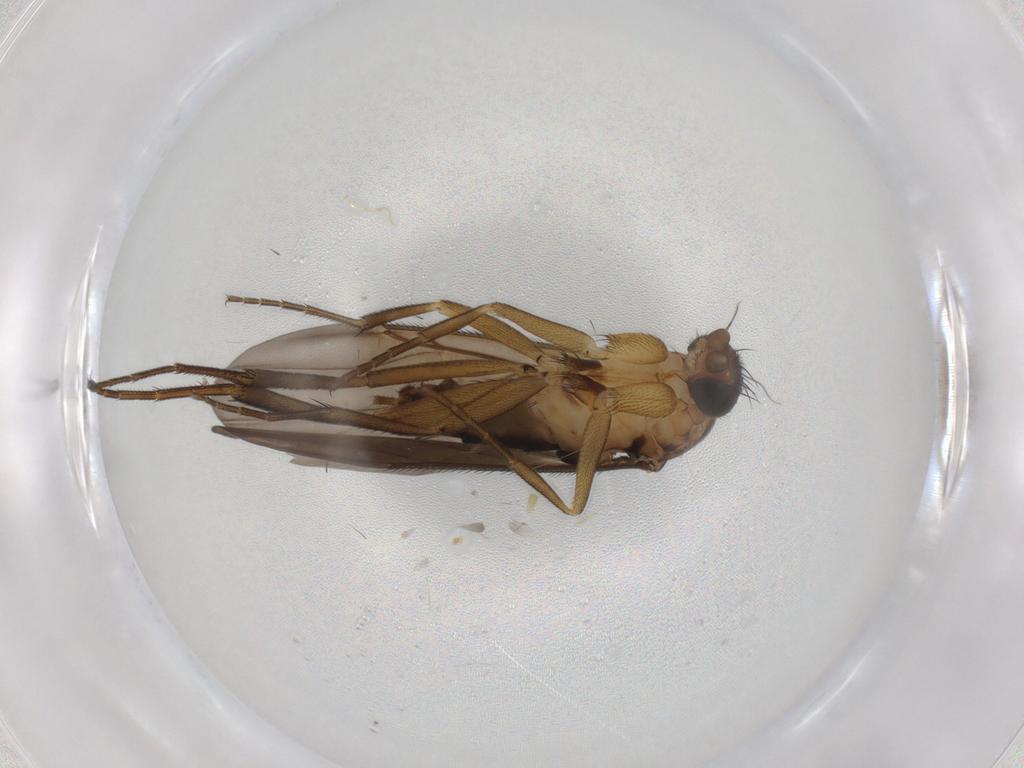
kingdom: Animalia
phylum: Arthropoda
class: Insecta
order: Diptera
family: Phoridae
